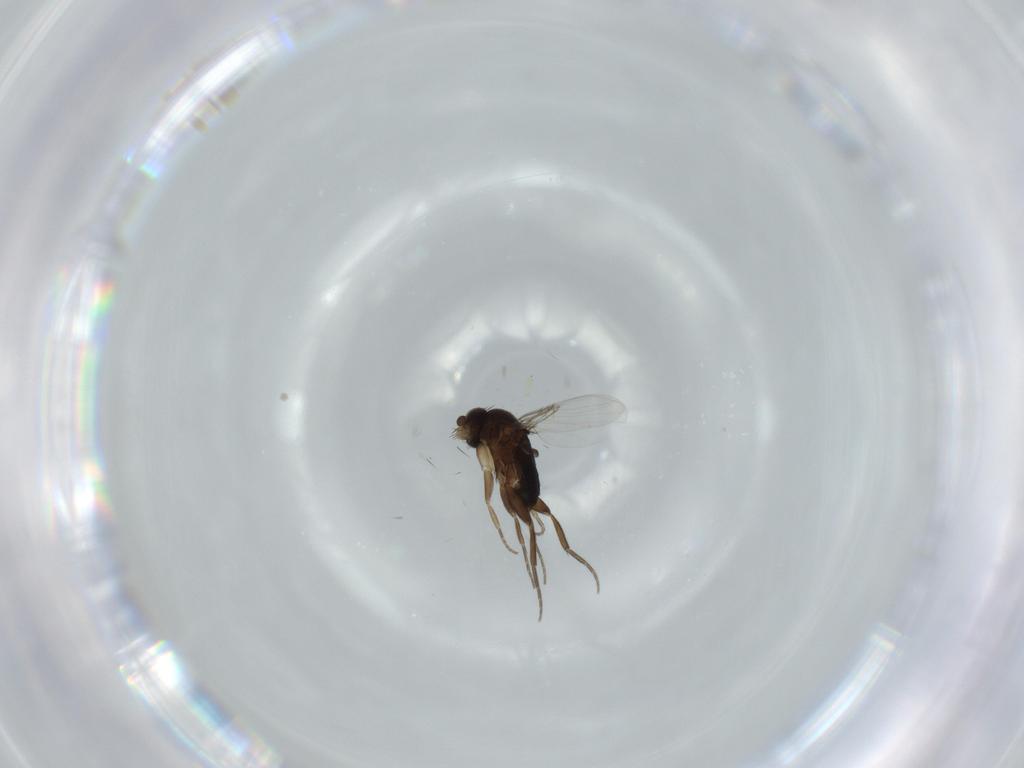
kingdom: Animalia
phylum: Arthropoda
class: Insecta
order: Diptera
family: Phoridae
